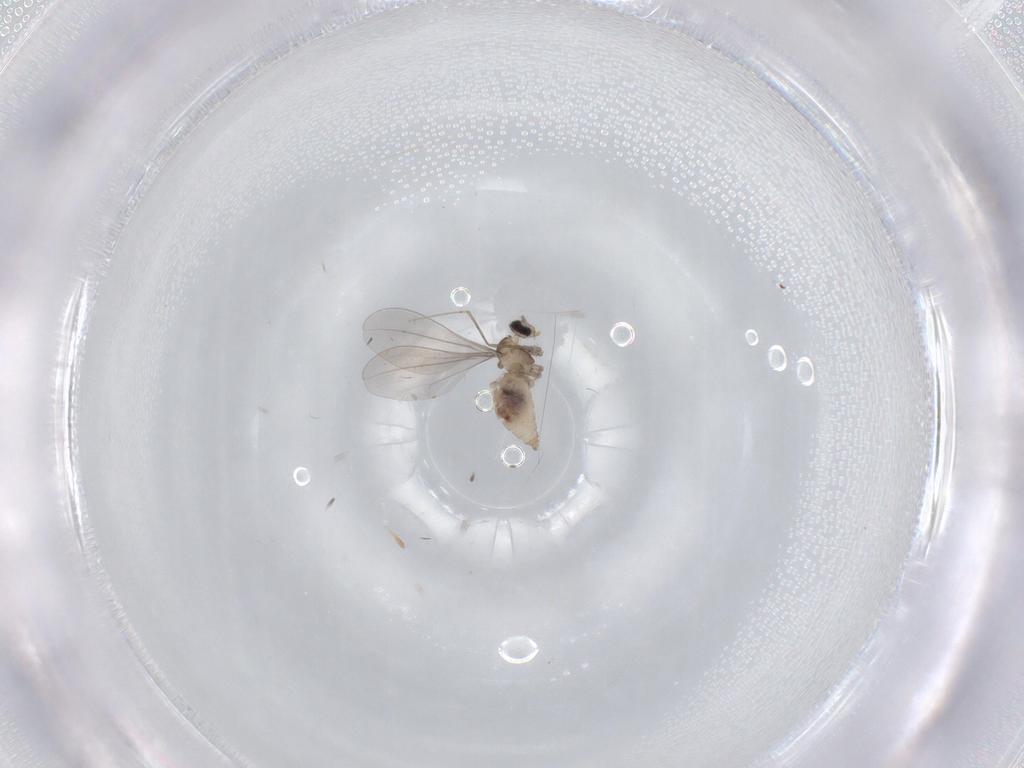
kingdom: Animalia
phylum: Arthropoda
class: Insecta
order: Diptera
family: Cecidomyiidae
